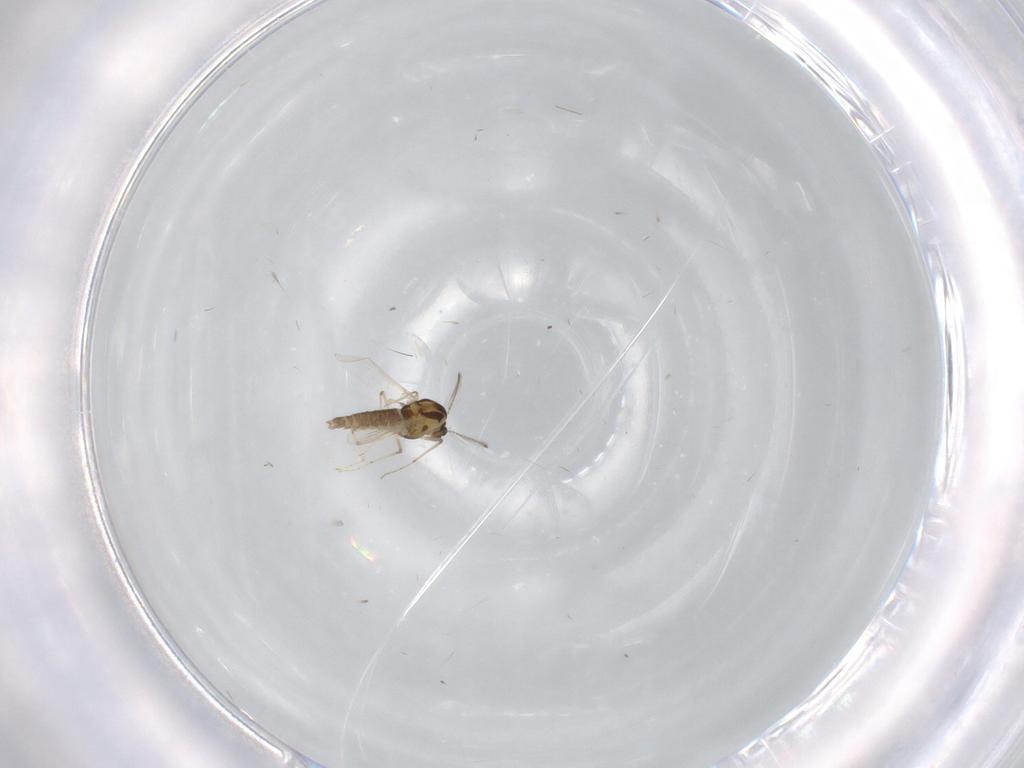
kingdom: Animalia
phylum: Arthropoda
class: Insecta
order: Diptera
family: Chironomidae
